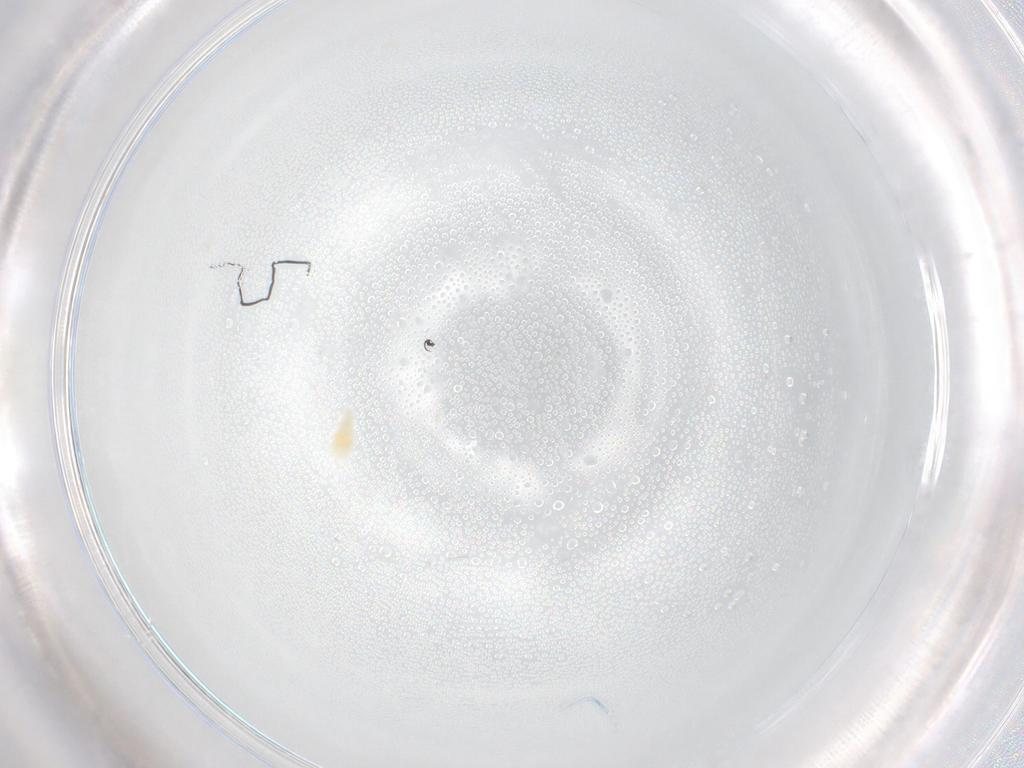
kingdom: Animalia
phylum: Arthropoda
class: Arachnida
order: Trombidiformes
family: Eupodidae
